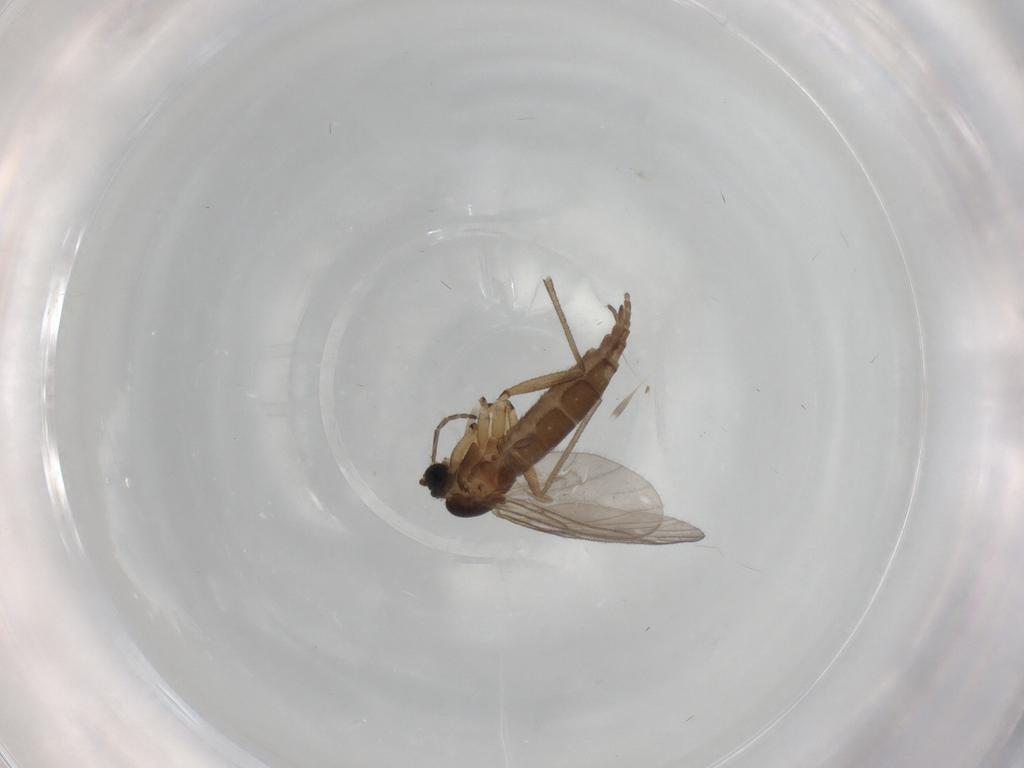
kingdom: Animalia
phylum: Arthropoda
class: Insecta
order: Diptera
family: Sciaridae
